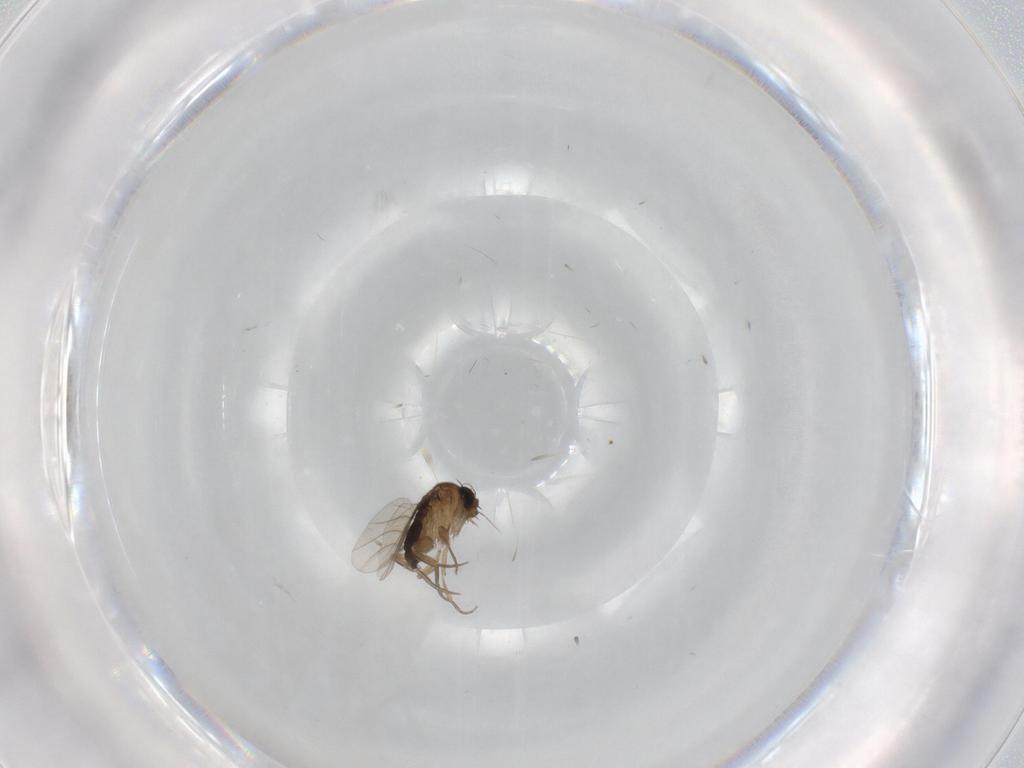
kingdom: Animalia
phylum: Arthropoda
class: Insecta
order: Diptera
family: Phoridae
